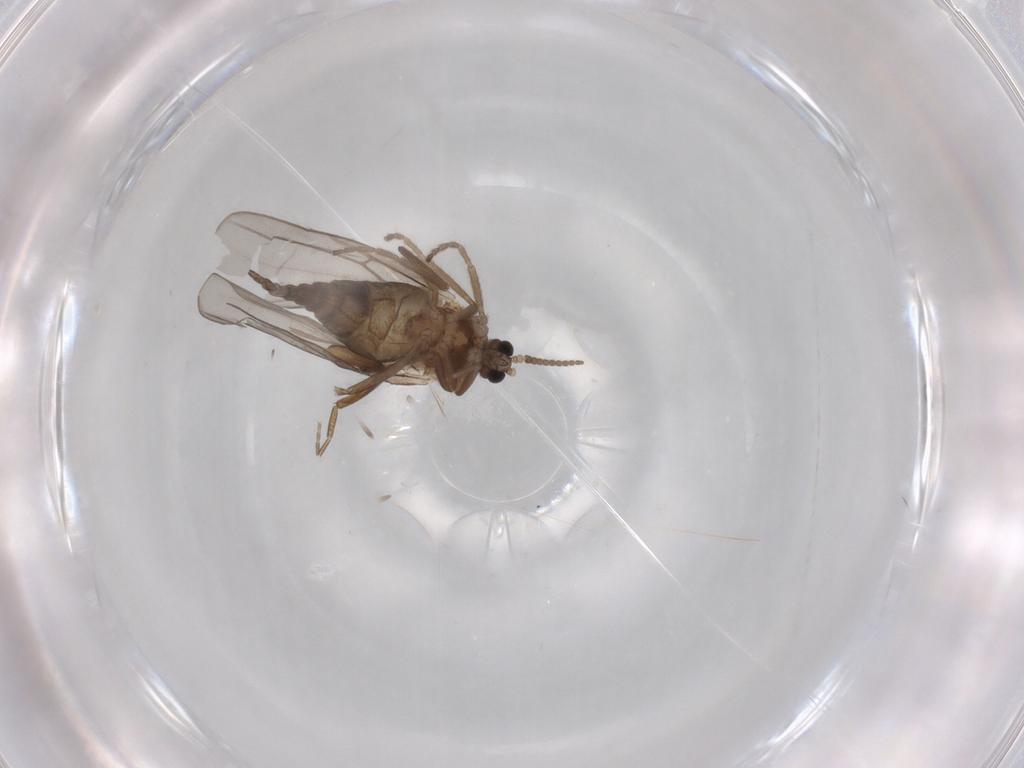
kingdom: Animalia
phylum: Arthropoda
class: Insecta
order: Diptera
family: Cecidomyiidae
